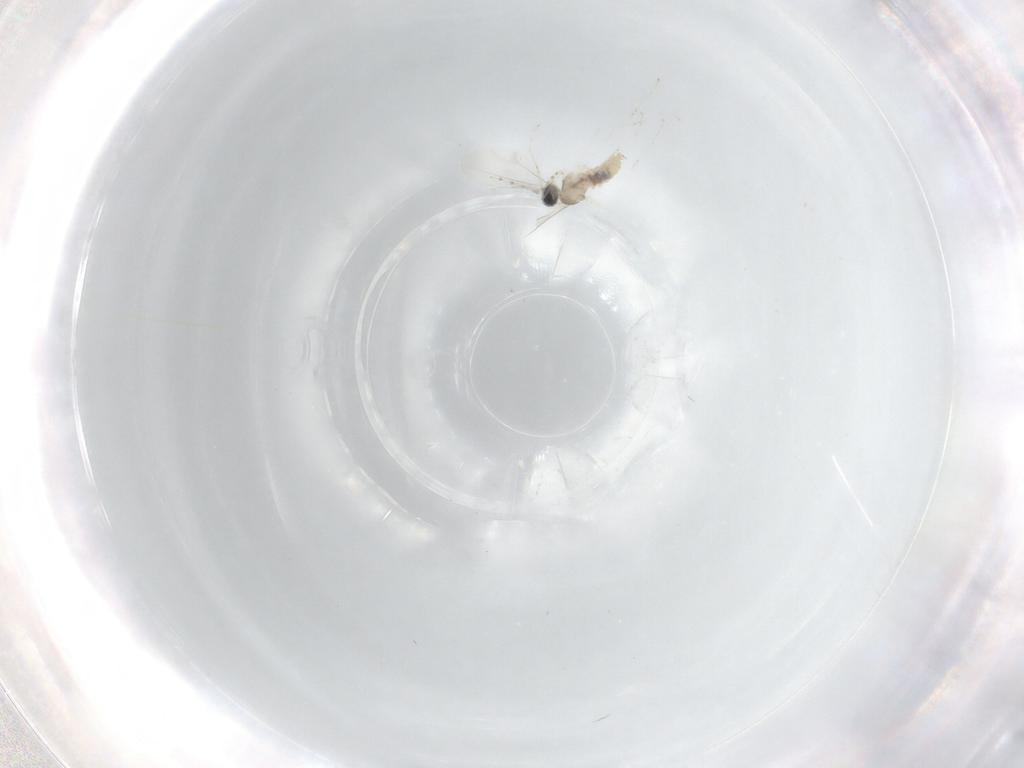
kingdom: Animalia
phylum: Arthropoda
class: Insecta
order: Diptera
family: Cecidomyiidae
